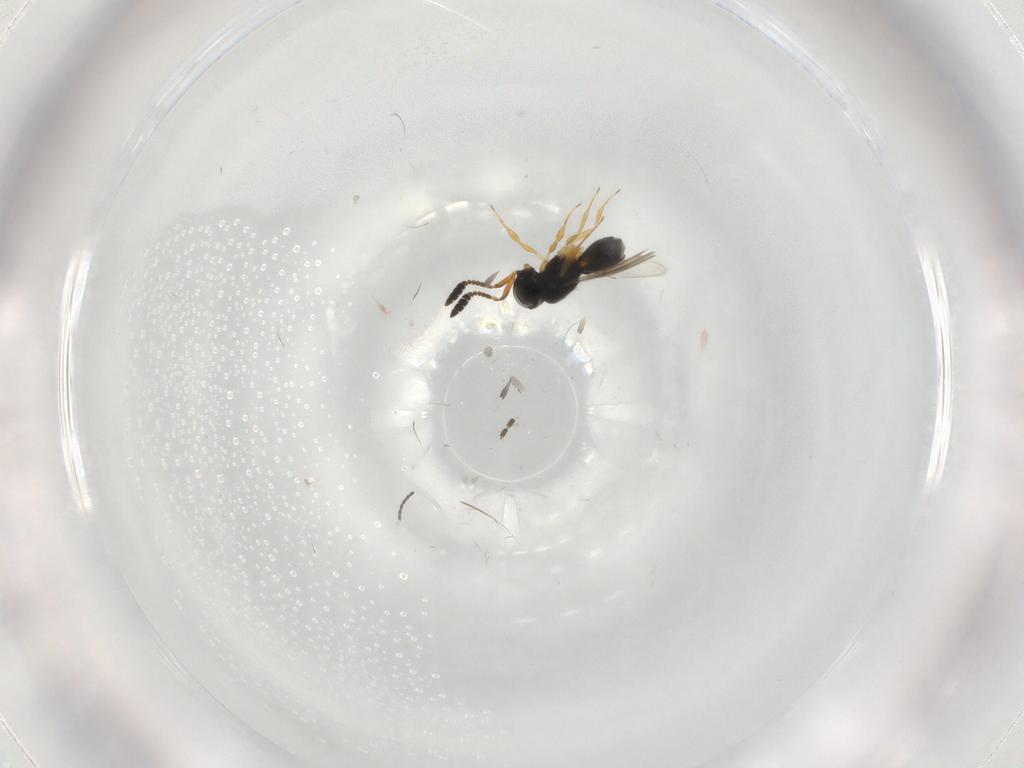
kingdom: Animalia
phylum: Arthropoda
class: Insecta
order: Hymenoptera
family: Scelionidae
